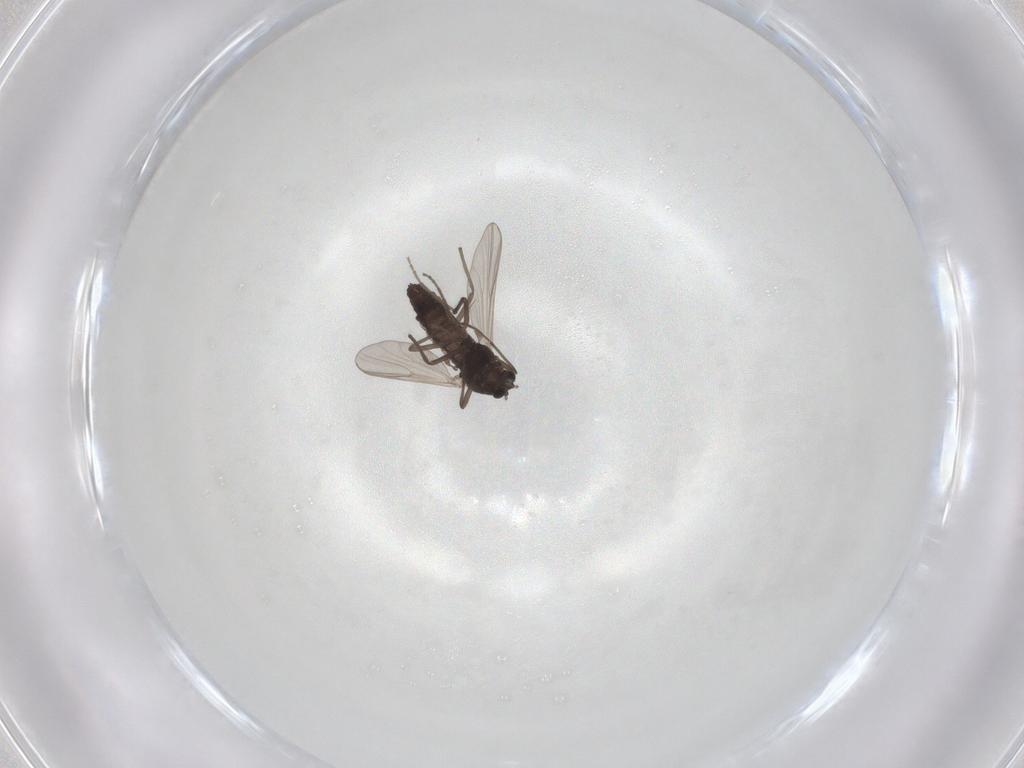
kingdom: Animalia
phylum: Arthropoda
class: Insecta
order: Diptera
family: Chironomidae
